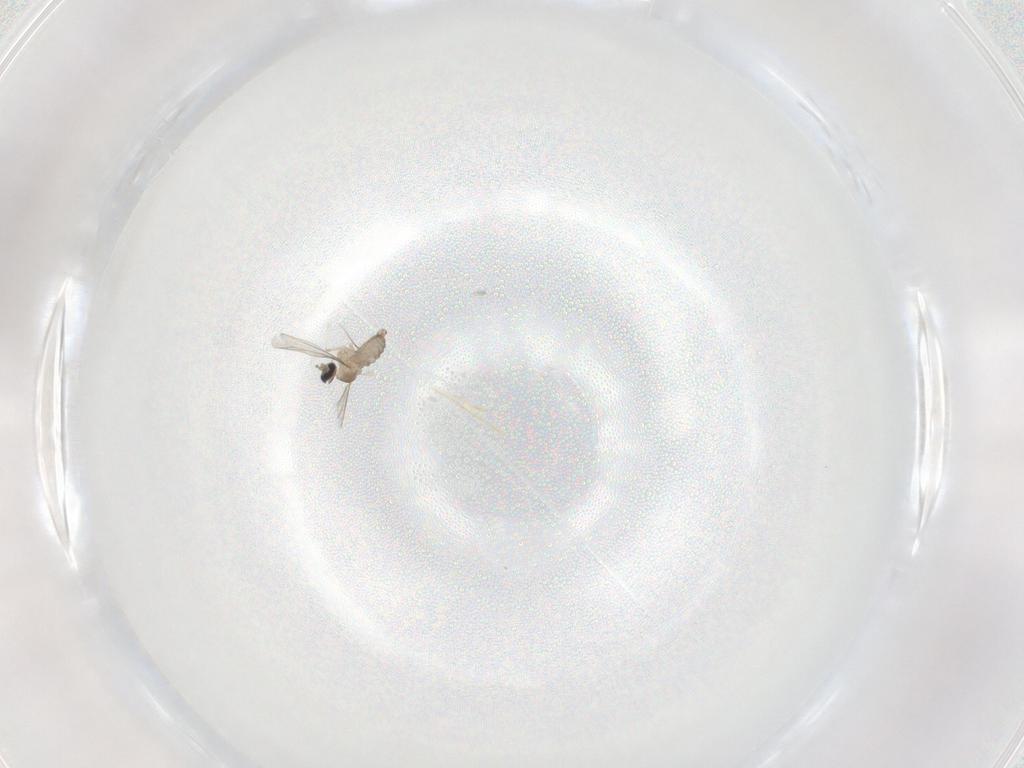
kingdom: Animalia
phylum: Arthropoda
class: Insecta
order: Diptera
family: Cecidomyiidae
